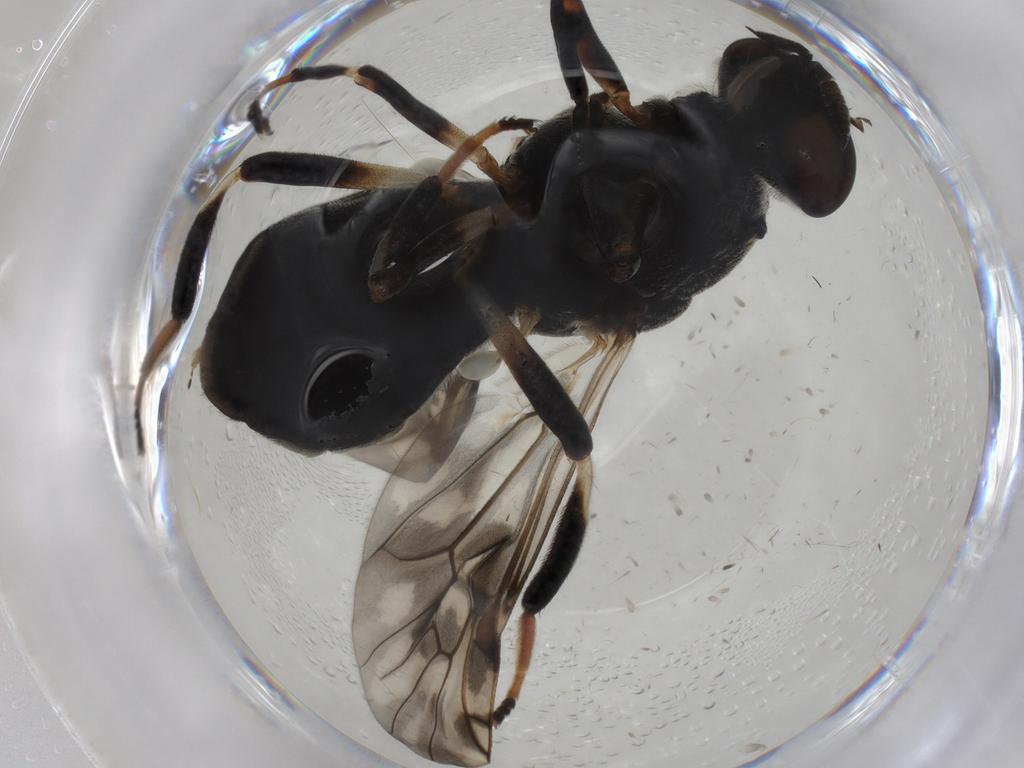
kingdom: Animalia
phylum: Arthropoda
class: Insecta
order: Diptera
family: Stratiomyidae
